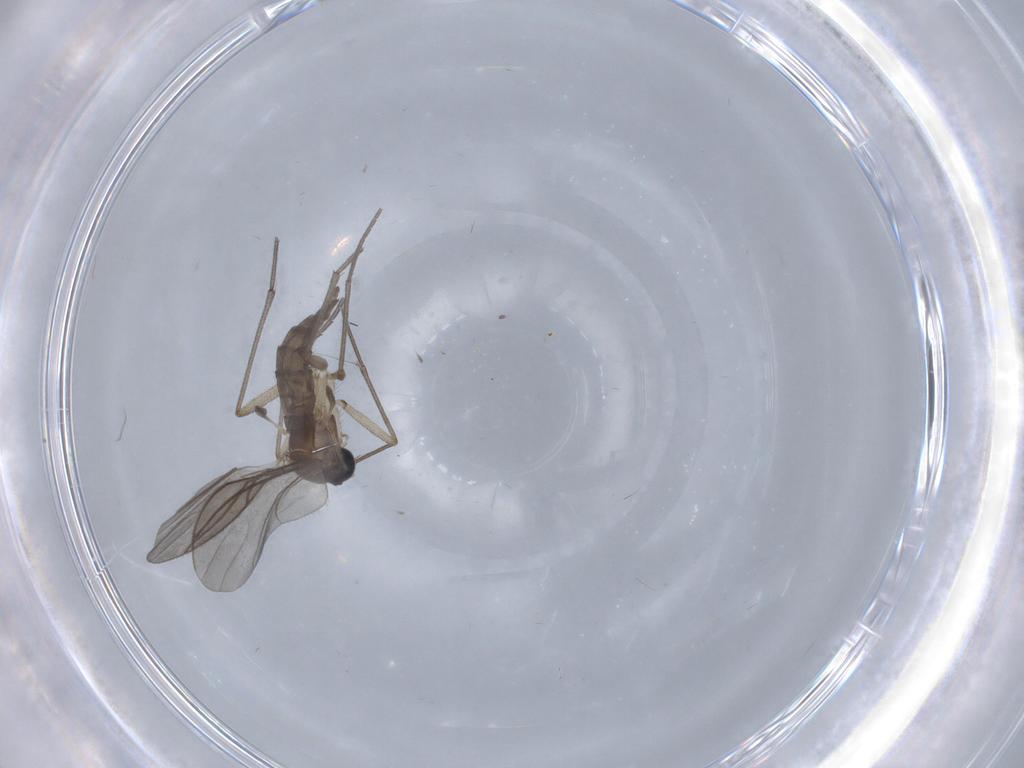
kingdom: Animalia
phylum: Arthropoda
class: Insecta
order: Diptera
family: Sciaridae
